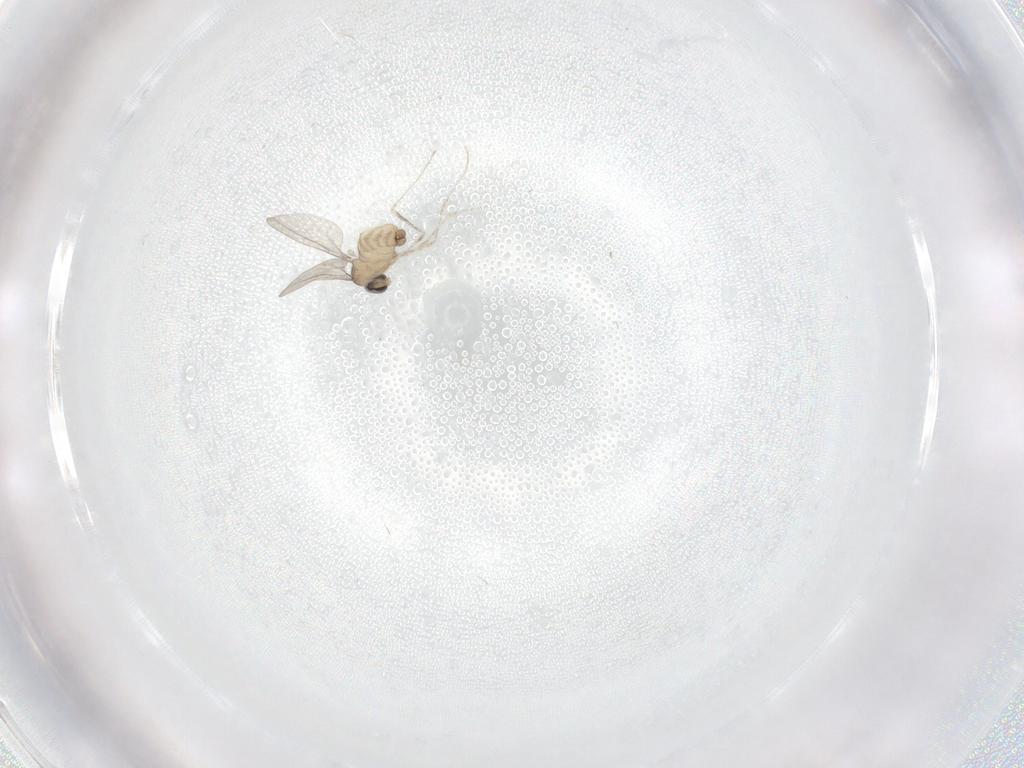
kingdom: Animalia
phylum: Arthropoda
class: Insecta
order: Diptera
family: Cecidomyiidae
